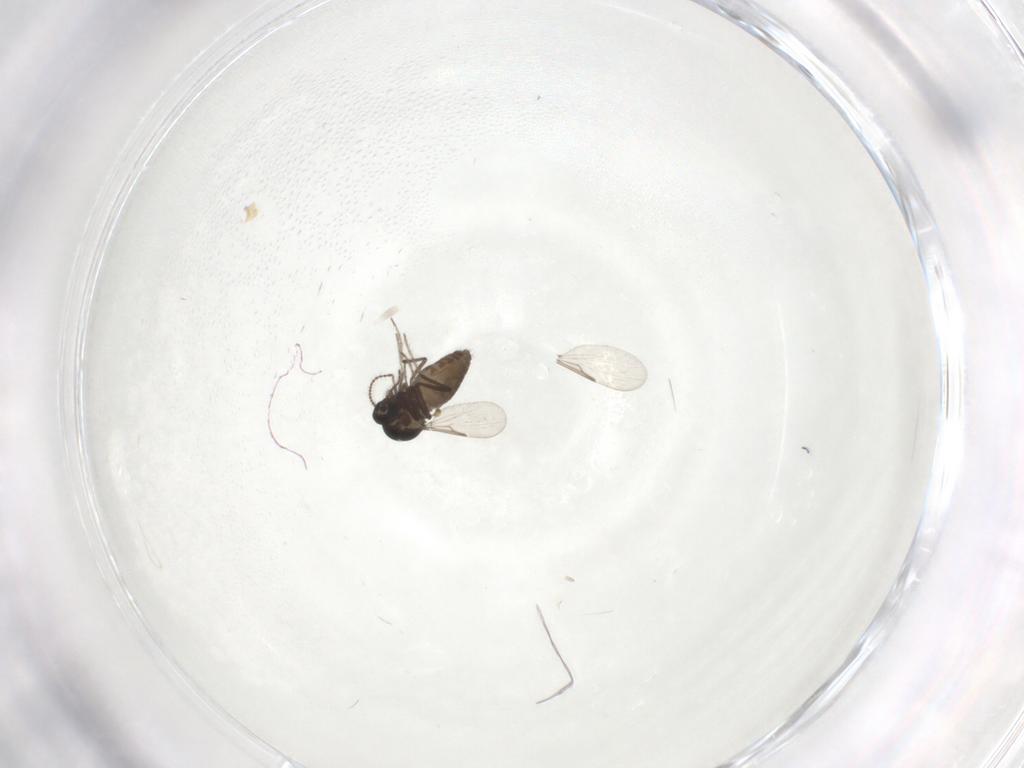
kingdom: Animalia
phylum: Arthropoda
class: Insecta
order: Diptera
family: Ceratopogonidae
